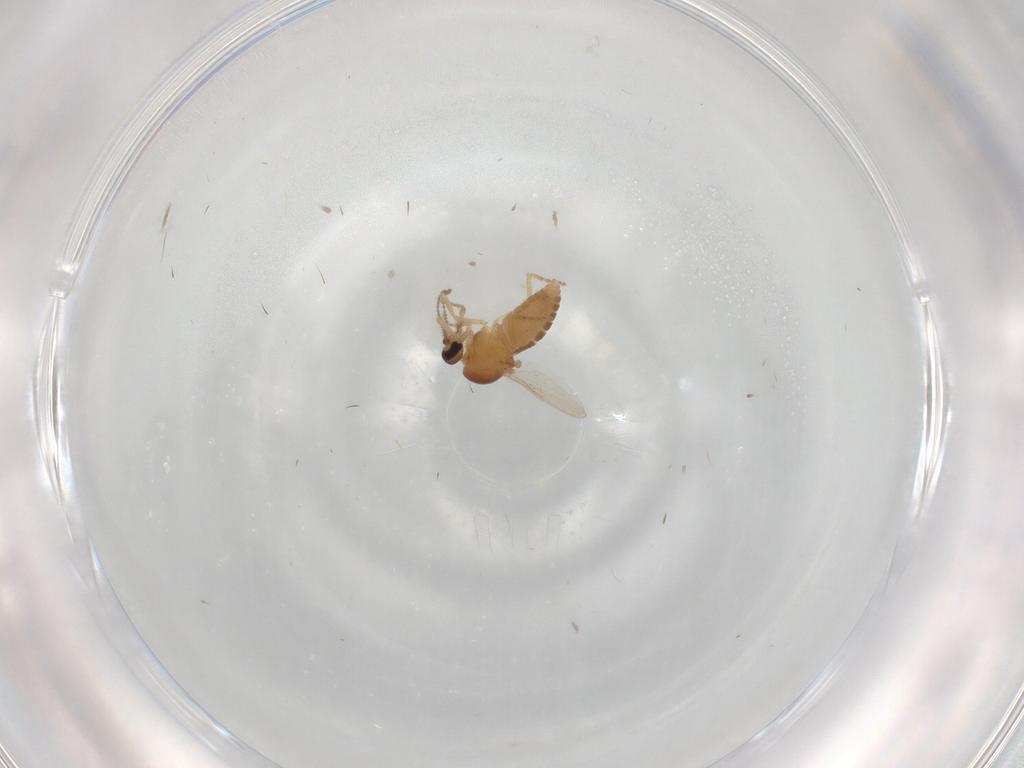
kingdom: Animalia
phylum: Arthropoda
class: Insecta
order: Diptera
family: Ceratopogonidae
